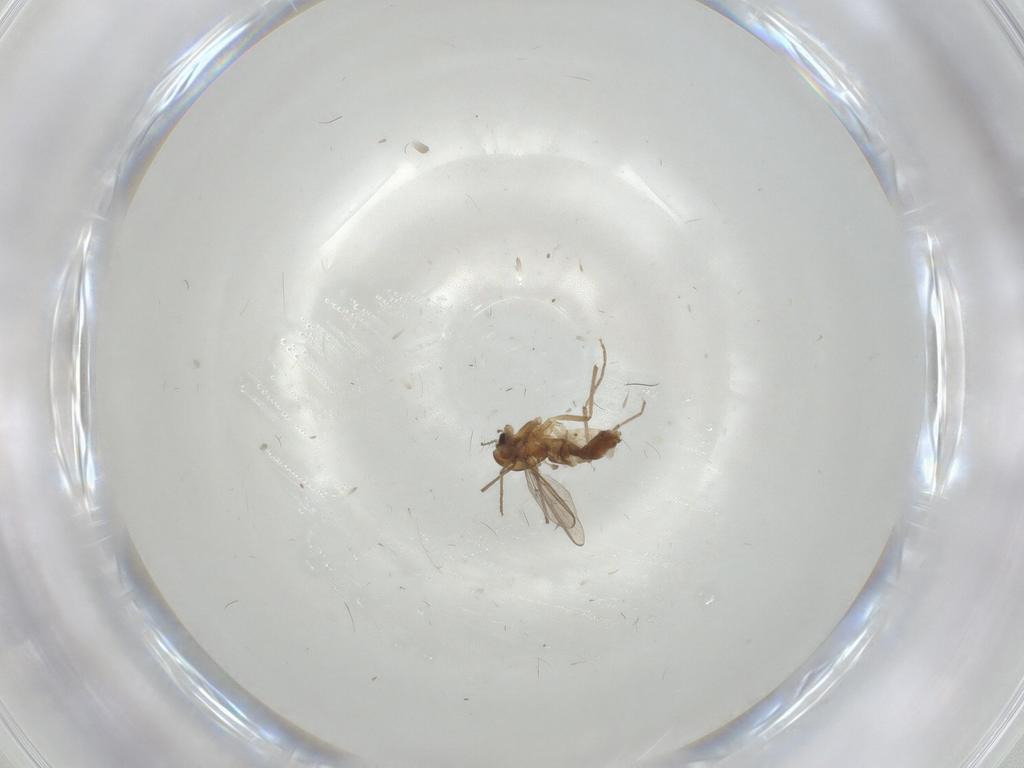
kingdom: Animalia
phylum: Arthropoda
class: Insecta
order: Diptera
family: Chironomidae
